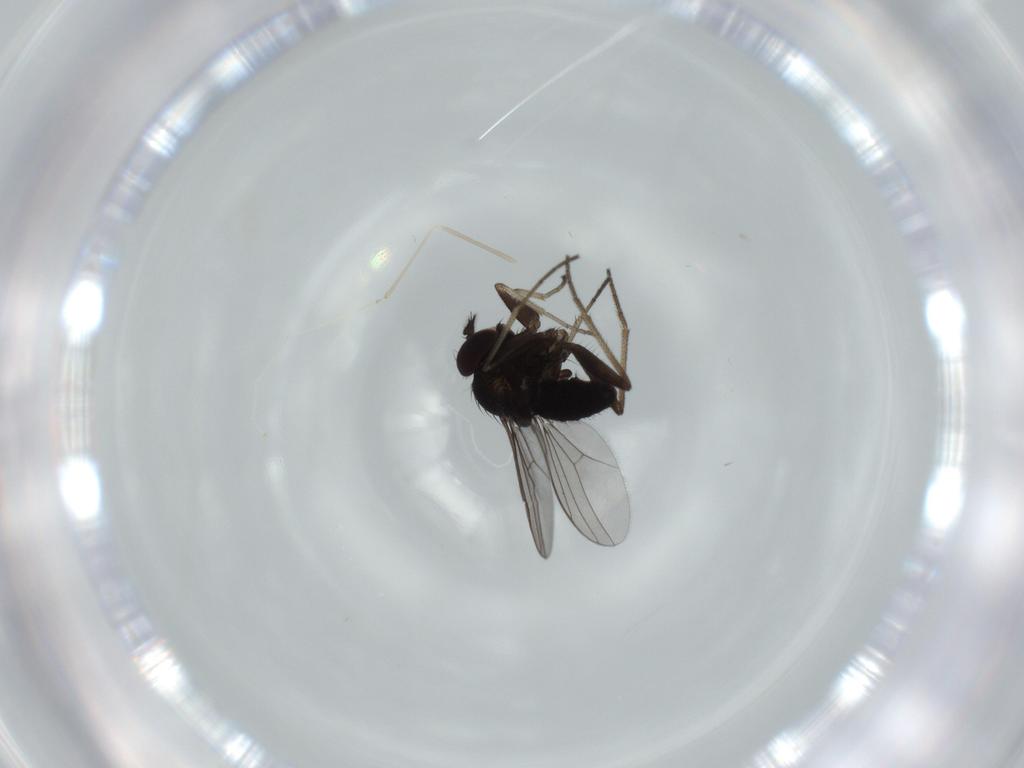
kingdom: Animalia
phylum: Arthropoda
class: Insecta
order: Diptera
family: Dolichopodidae
